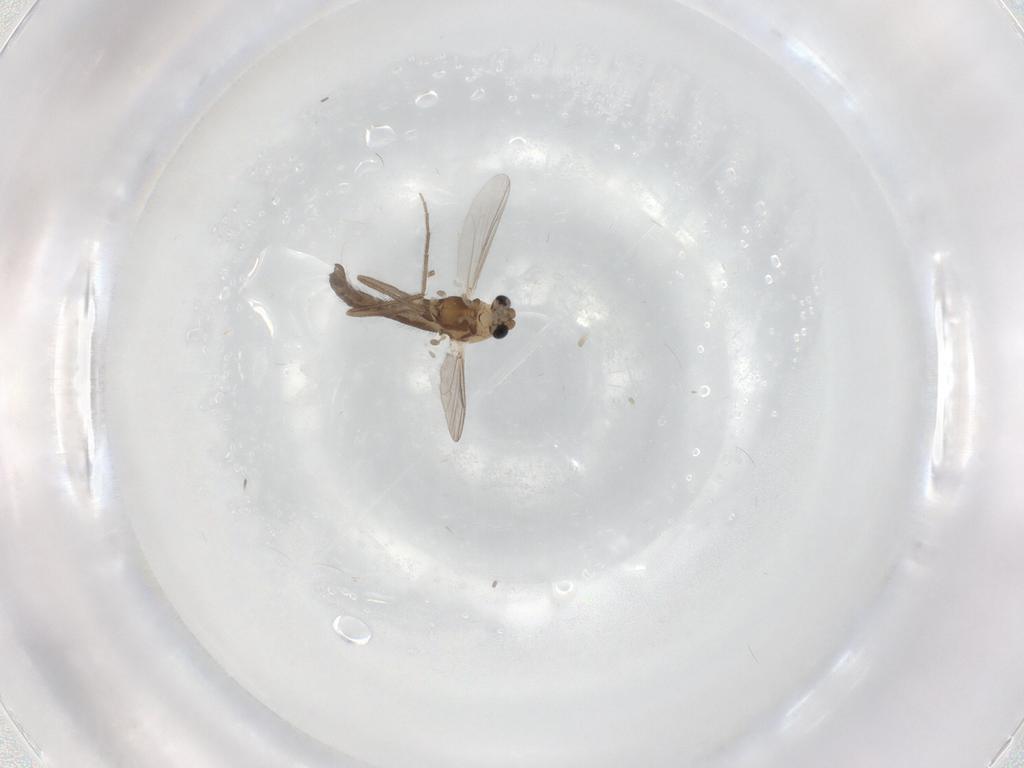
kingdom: Animalia
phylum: Arthropoda
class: Insecta
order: Diptera
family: Chironomidae
